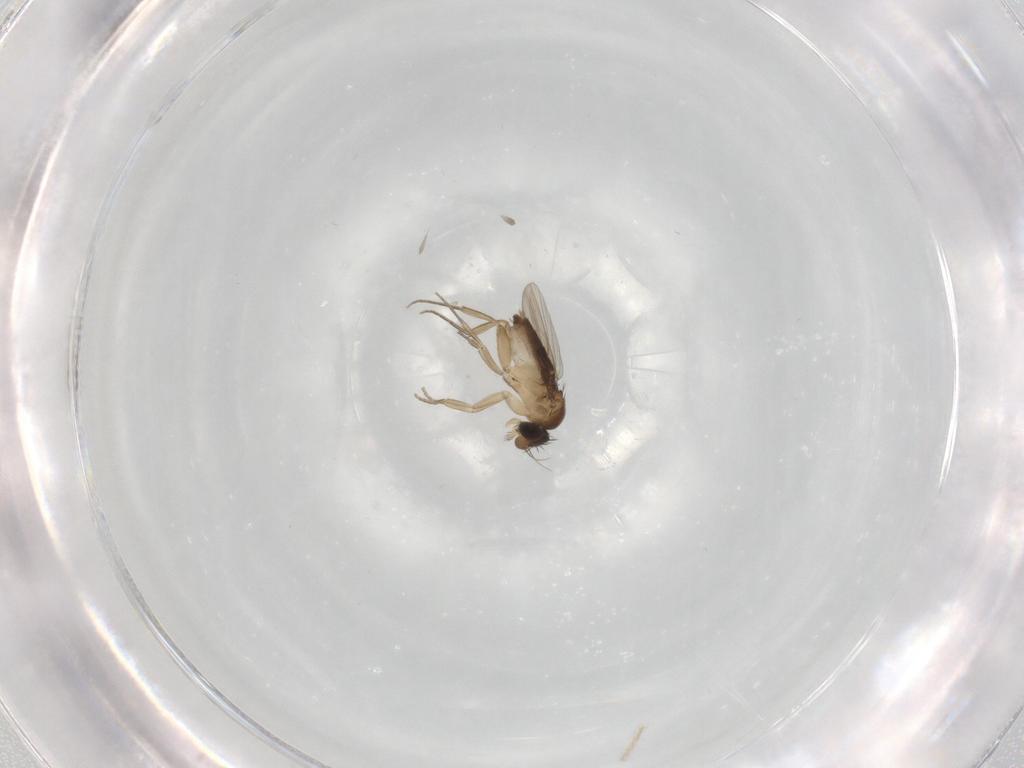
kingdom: Animalia
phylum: Arthropoda
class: Insecta
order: Diptera
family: Phoridae
